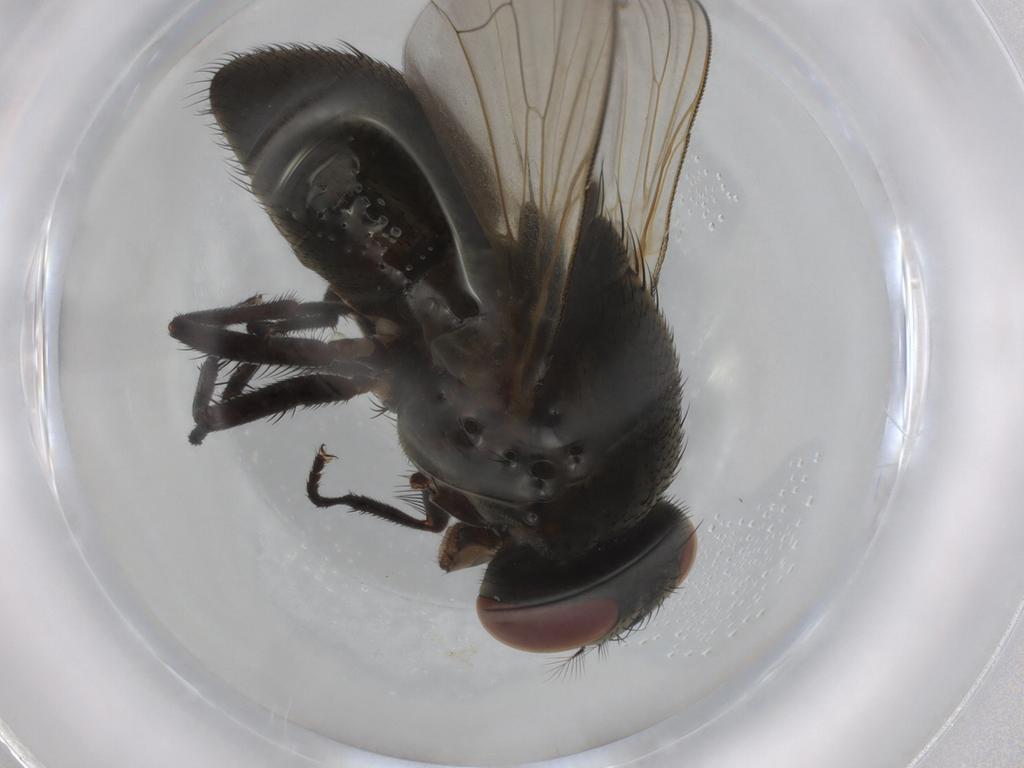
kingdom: Animalia
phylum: Arthropoda
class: Insecta
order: Diptera
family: Muscidae
